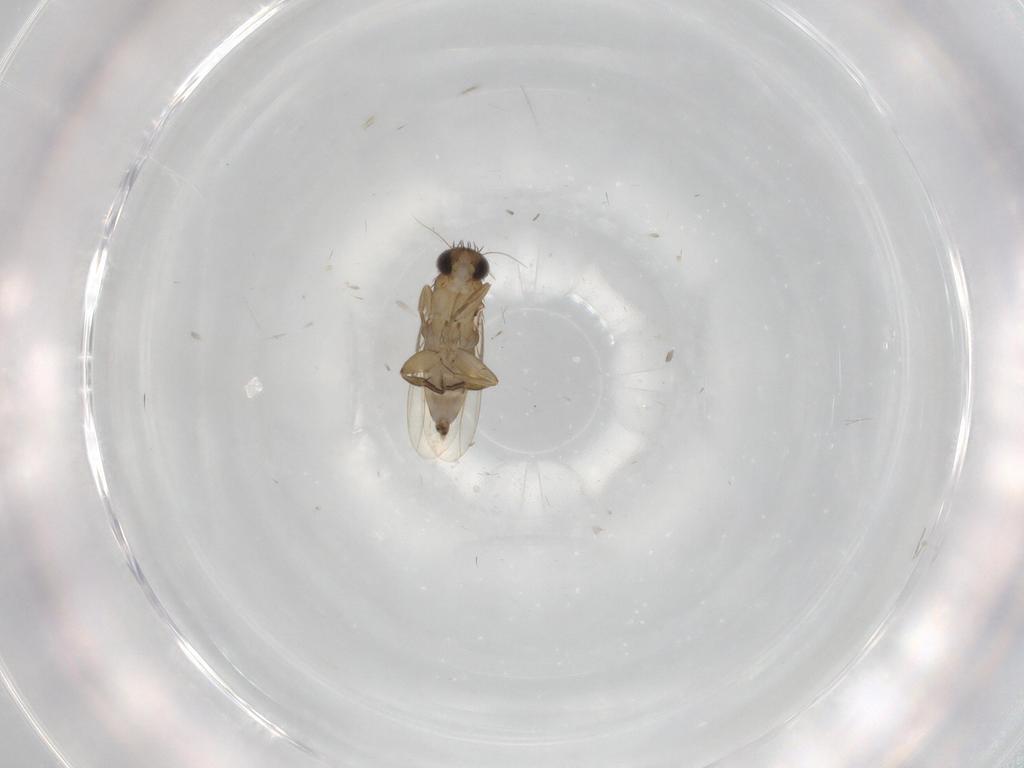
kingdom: Animalia
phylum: Arthropoda
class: Insecta
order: Diptera
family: Phoridae
